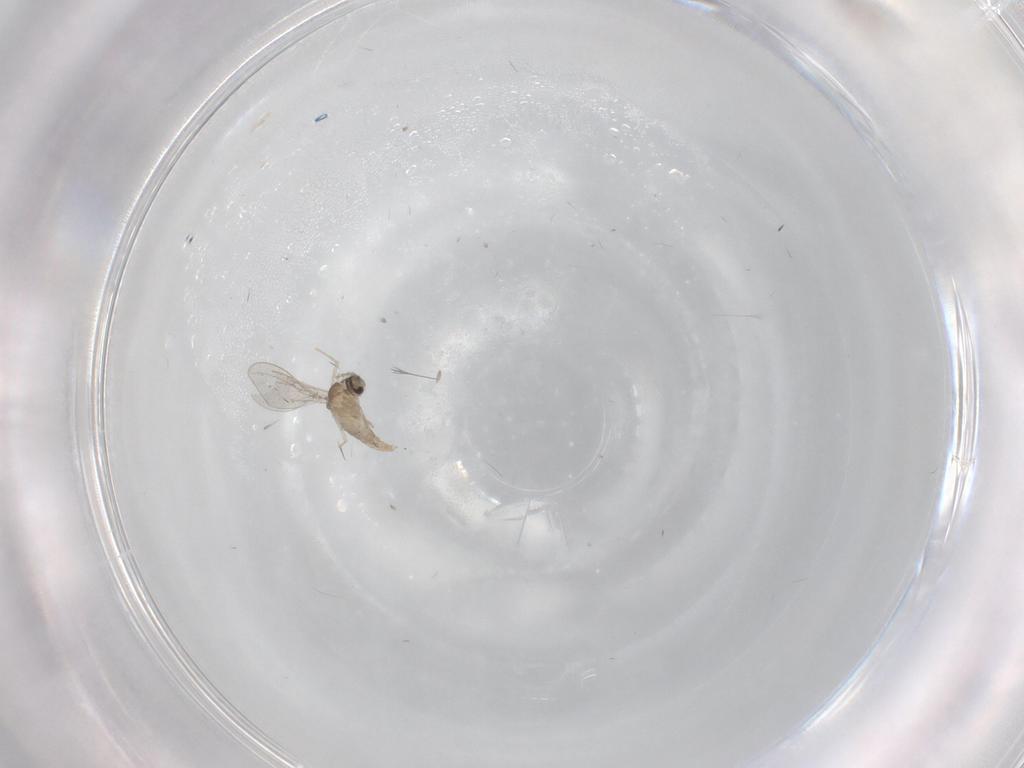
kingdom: Animalia
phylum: Arthropoda
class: Insecta
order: Diptera
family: Cecidomyiidae
